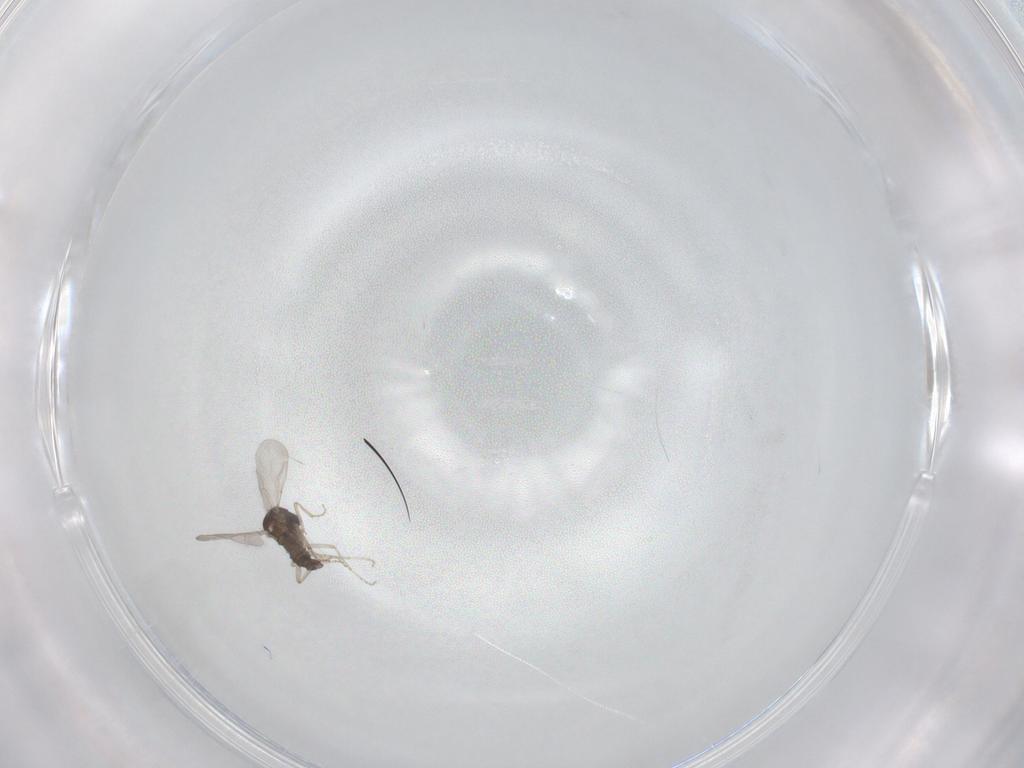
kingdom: Animalia
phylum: Arthropoda
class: Insecta
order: Diptera
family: Ceratopogonidae
